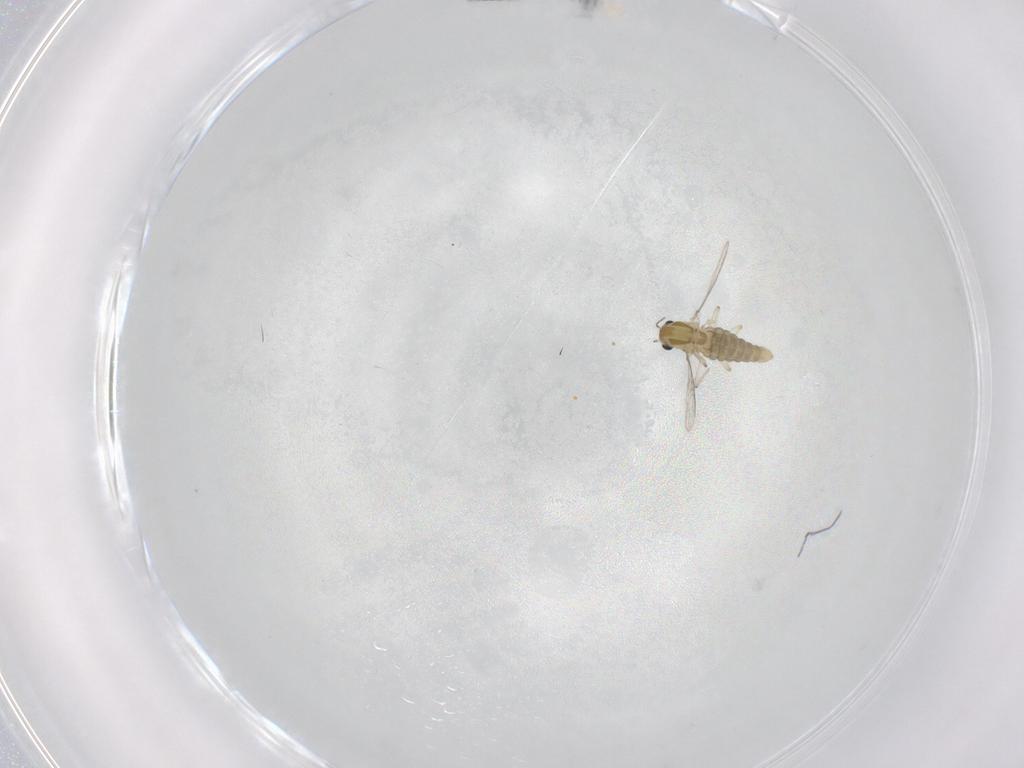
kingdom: Animalia
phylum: Arthropoda
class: Insecta
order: Diptera
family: Chironomidae
